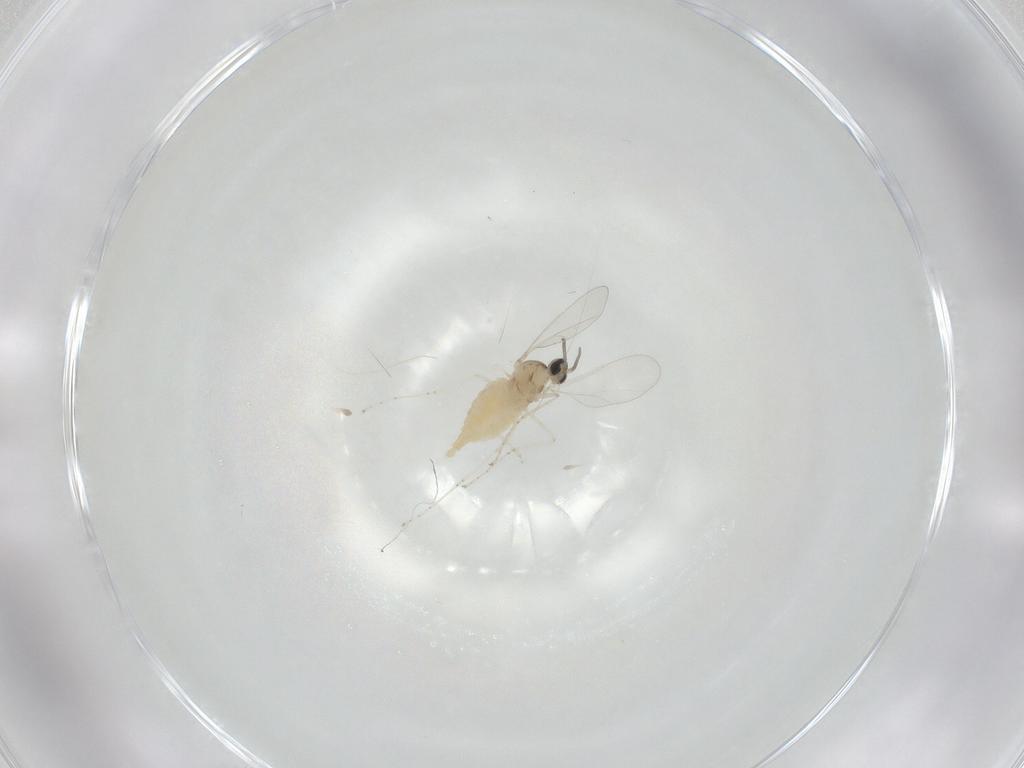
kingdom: Animalia
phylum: Arthropoda
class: Insecta
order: Diptera
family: Cecidomyiidae
